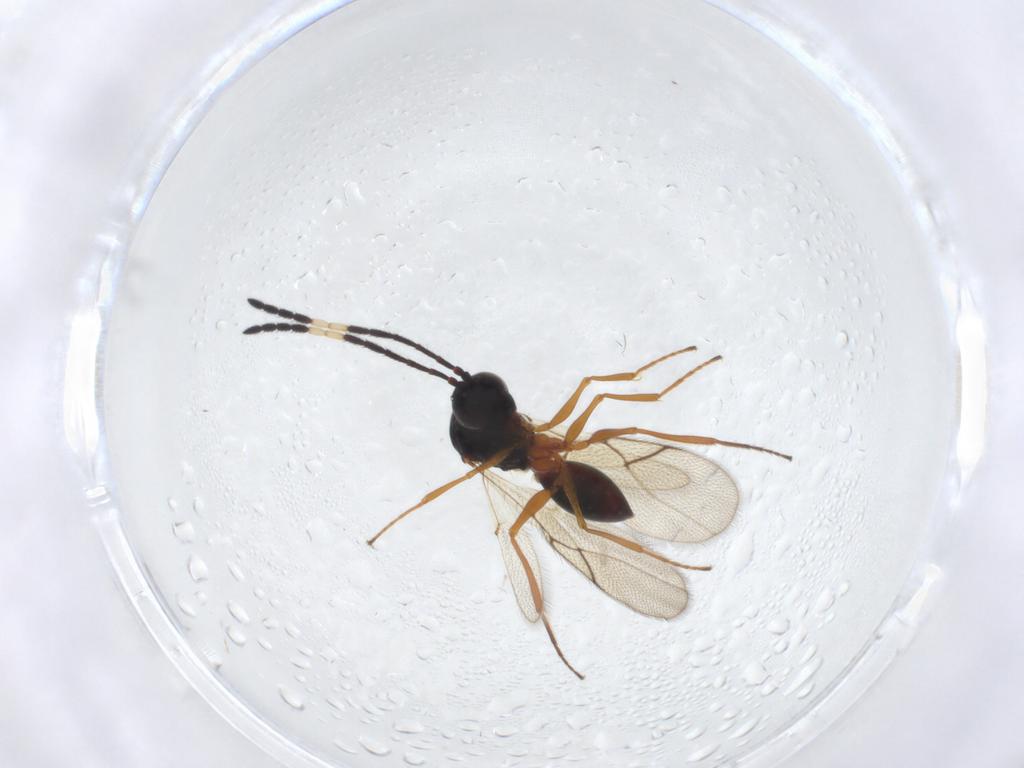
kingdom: Animalia
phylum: Arthropoda
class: Insecta
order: Hymenoptera
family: Figitidae
